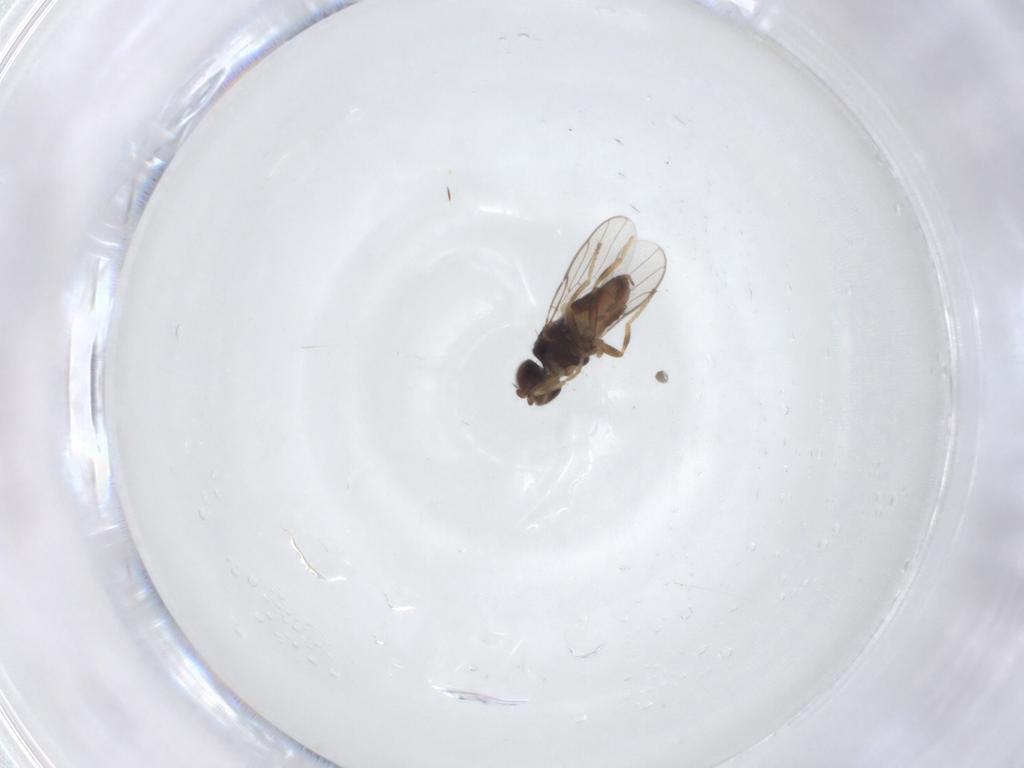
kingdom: Animalia
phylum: Arthropoda
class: Insecta
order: Diptera
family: Chloropidae
